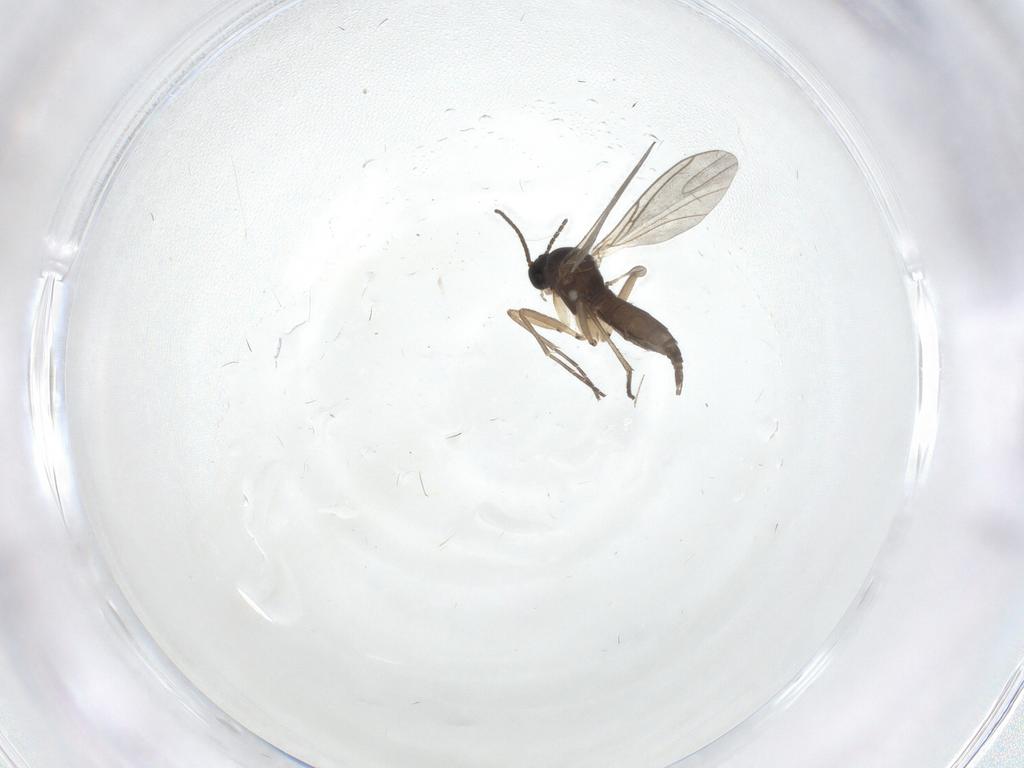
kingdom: Animalia
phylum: Arthropoda
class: Insecta
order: Diptera
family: Sciaridae
